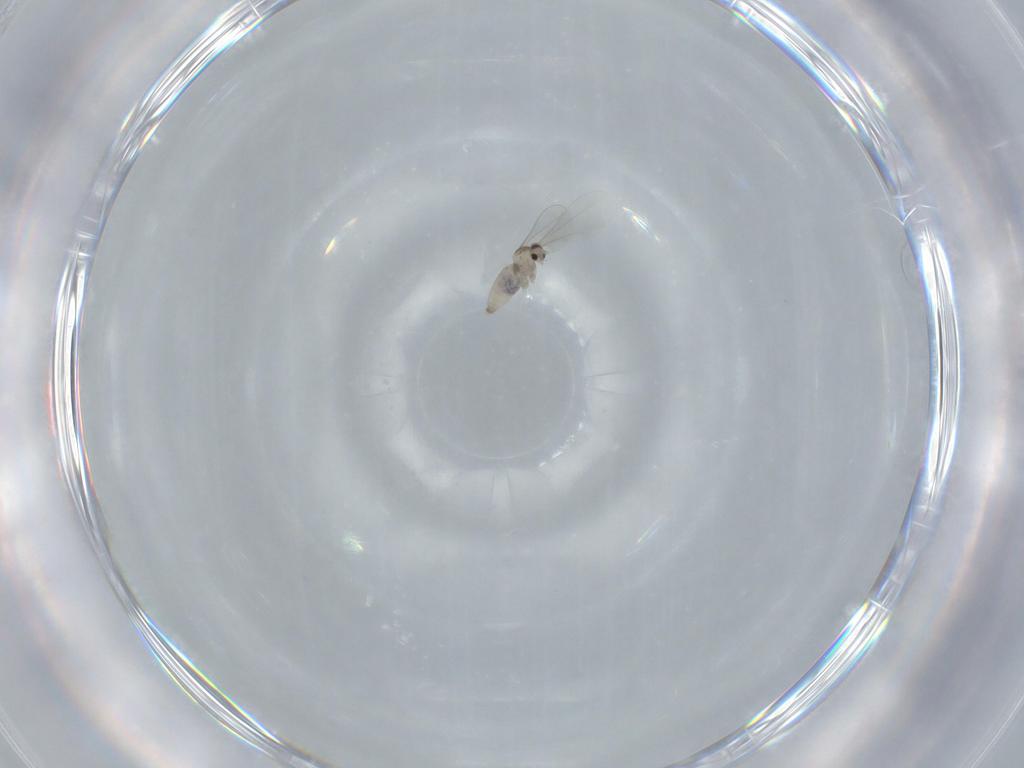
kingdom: Animalia
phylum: Arthropoda
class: Insecta
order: Diptera
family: Cecidomyiidae
